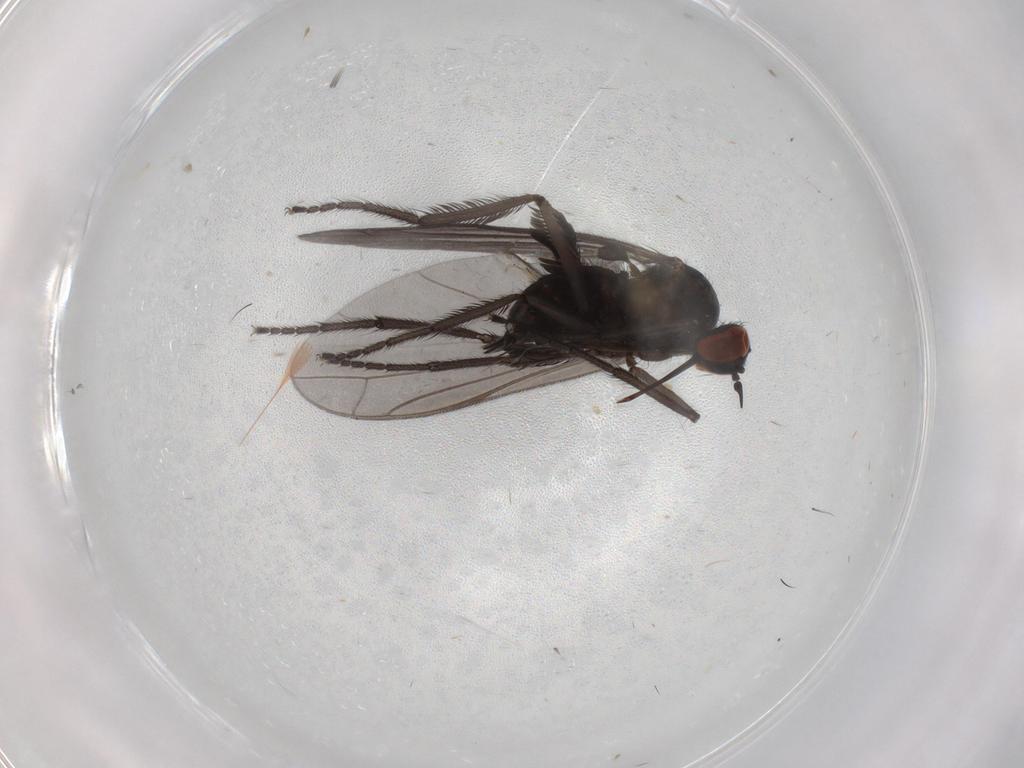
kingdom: Animalia
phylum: Arthropoda
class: Insecta
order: Diptera
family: Empididae
